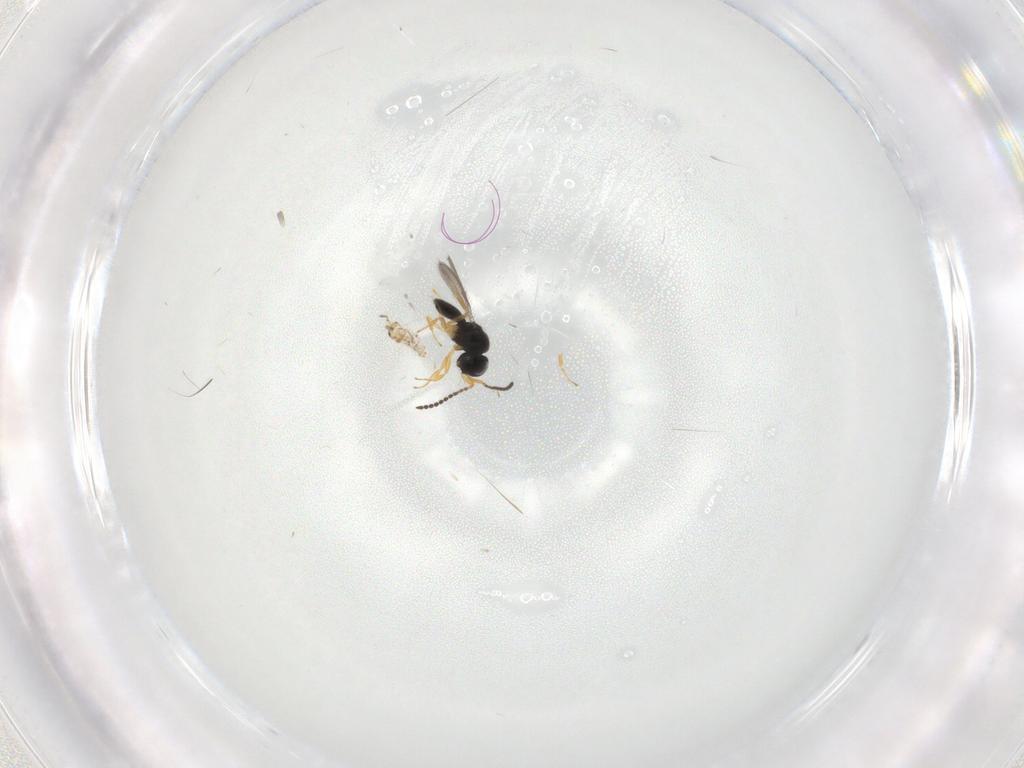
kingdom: Animalia
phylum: Arthropoda
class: Insecta
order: Hymenoptera
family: Scelionidae
